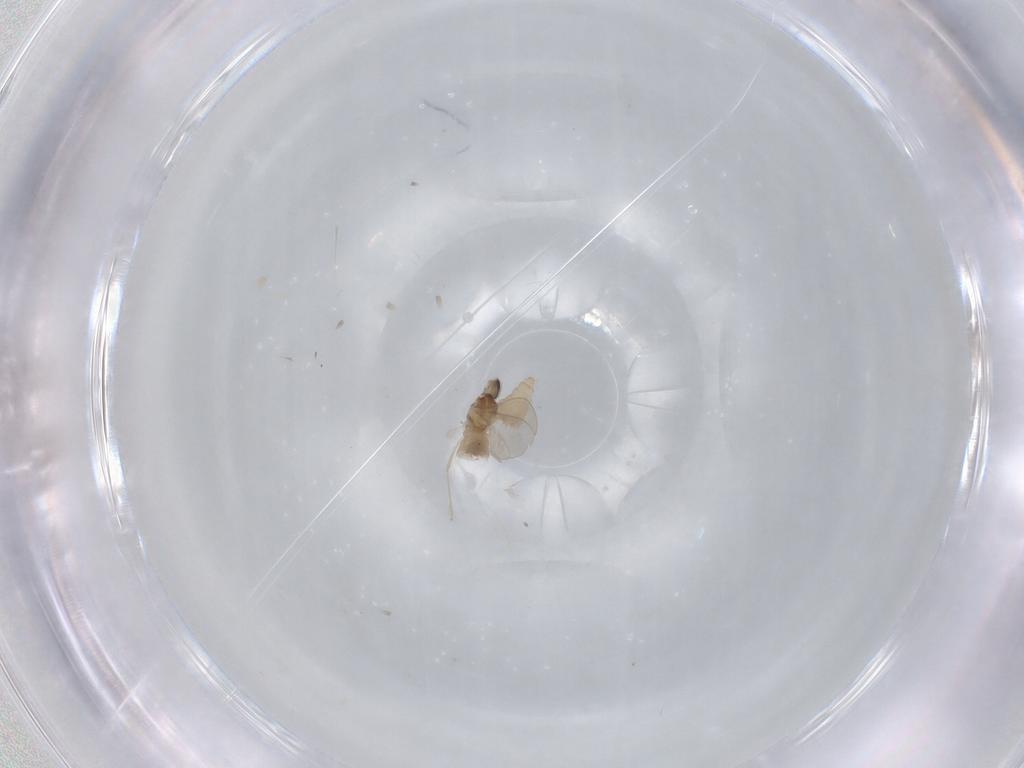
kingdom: Animalia
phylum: Arthropoda
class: Insecta
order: Diptera
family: Cecidomyiidae
